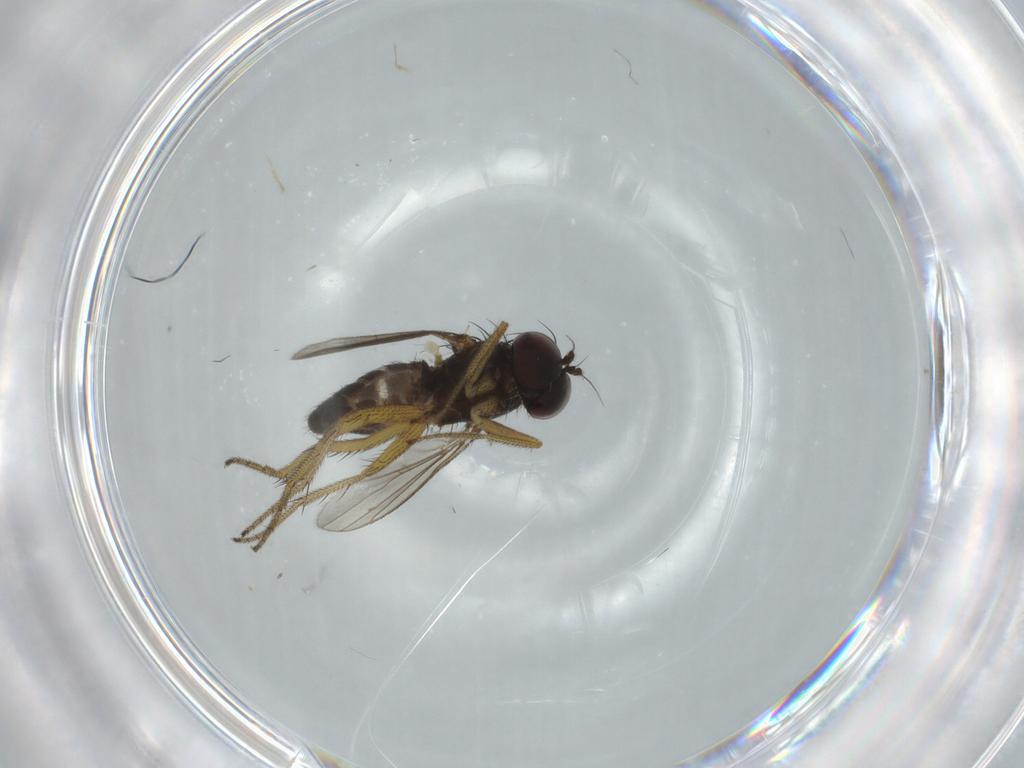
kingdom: Animalia
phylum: Arthropoda
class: Insecta
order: Diptera
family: Dolichopodidae
